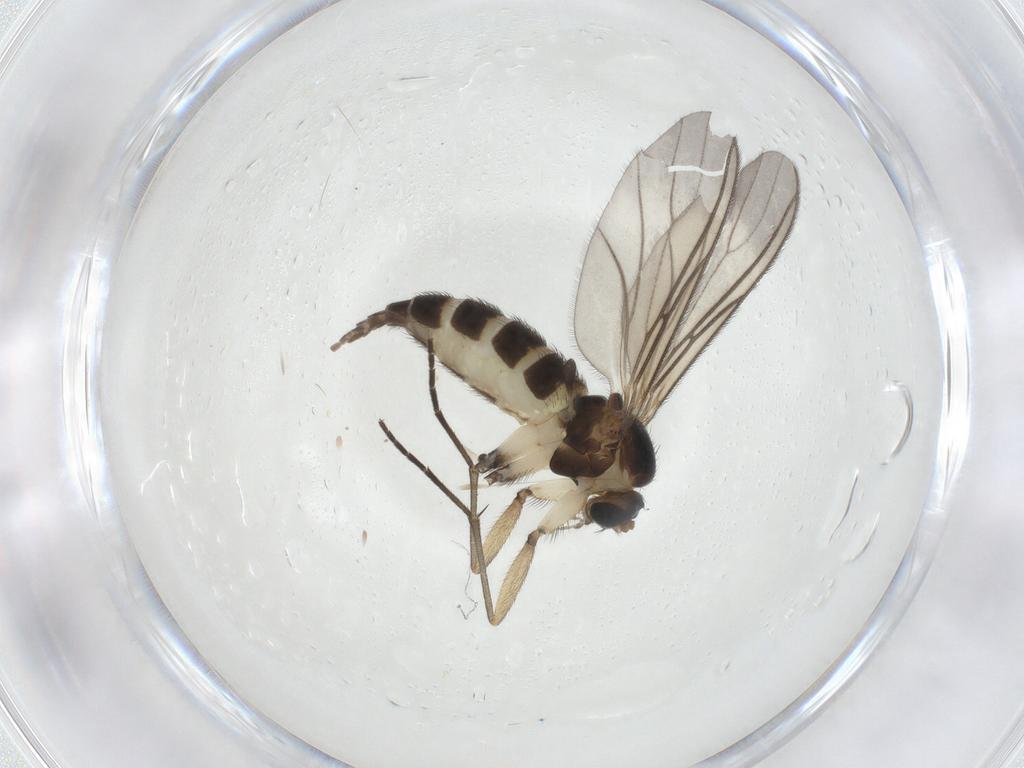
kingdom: Animalia
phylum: Arthropoda
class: Insecta
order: Diptera
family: Sciaridae
